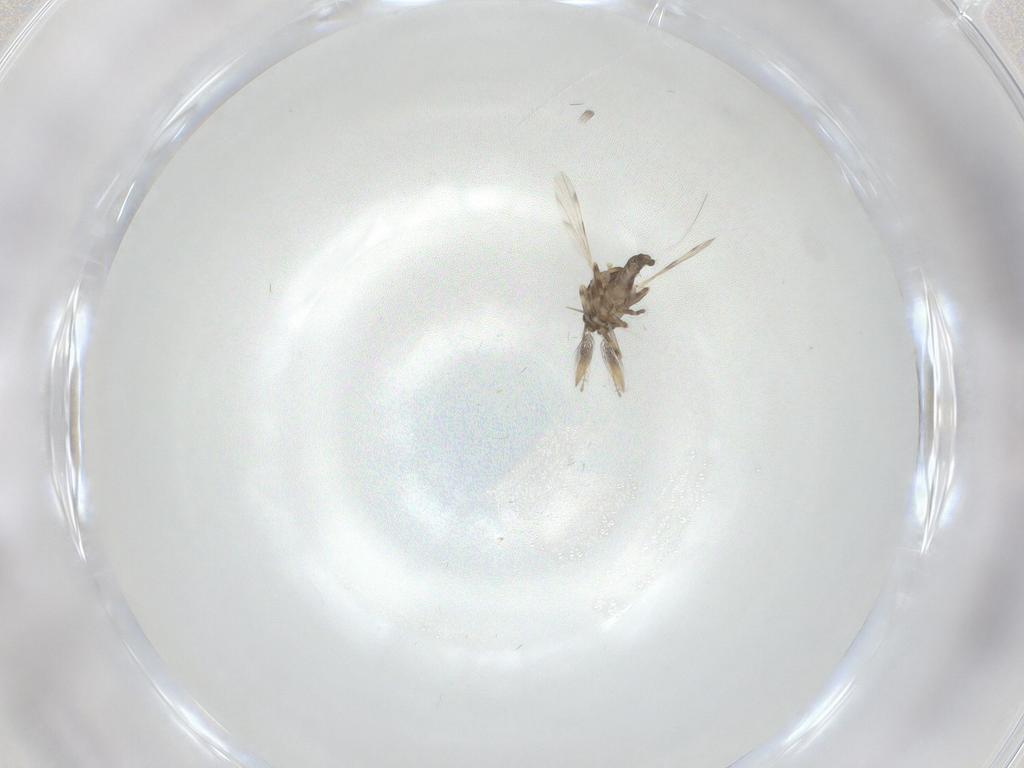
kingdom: Animalia
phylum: Arthropoda
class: Insecta
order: Diptera
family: Ceratopogonidae
